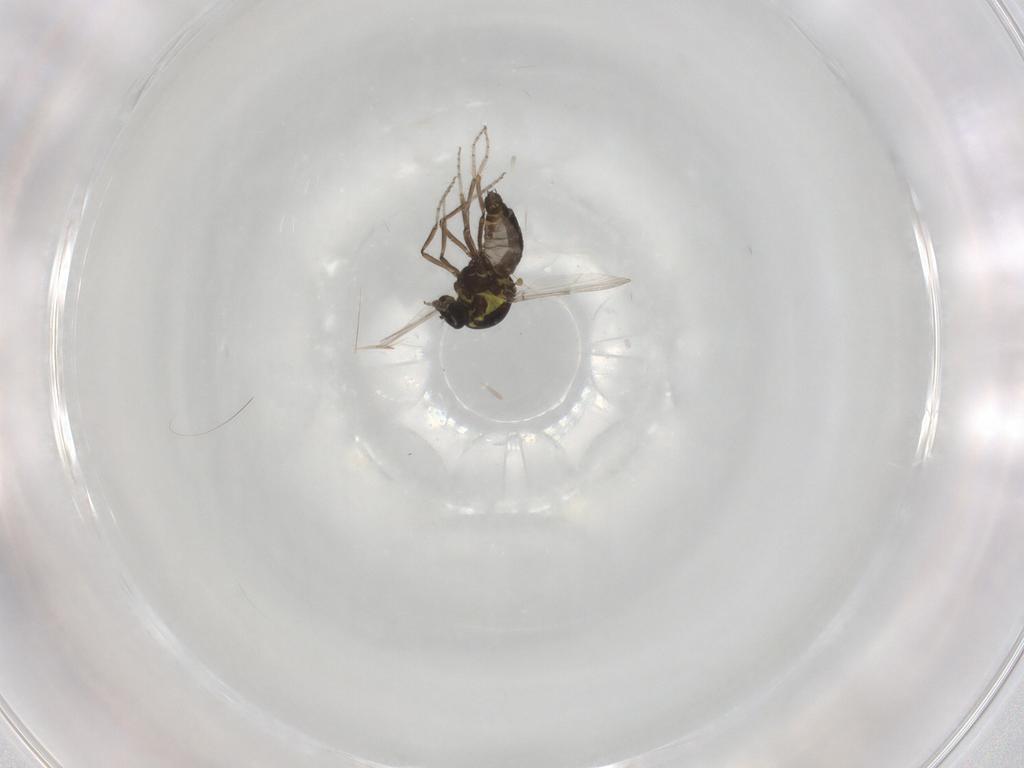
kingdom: Animalia
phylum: Arthropoda
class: Insecta
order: Diptera
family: Ceratopogonidae
